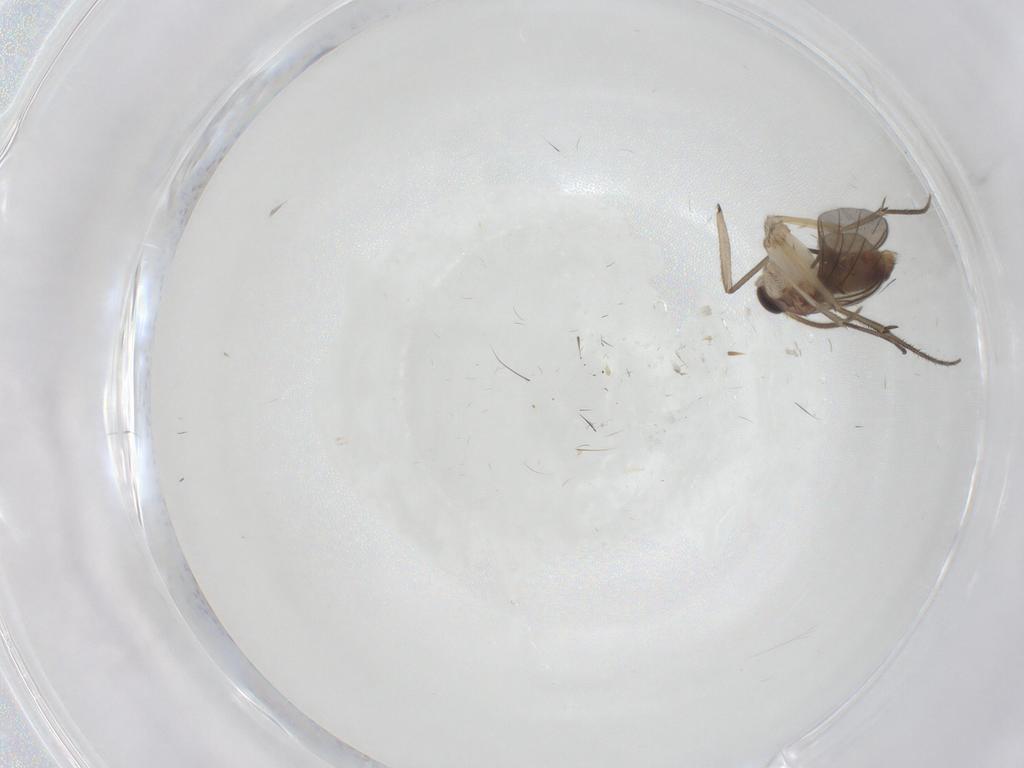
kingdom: Animalia
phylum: Arthropoda
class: Insecta
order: Diptera
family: Mycetophilidae
